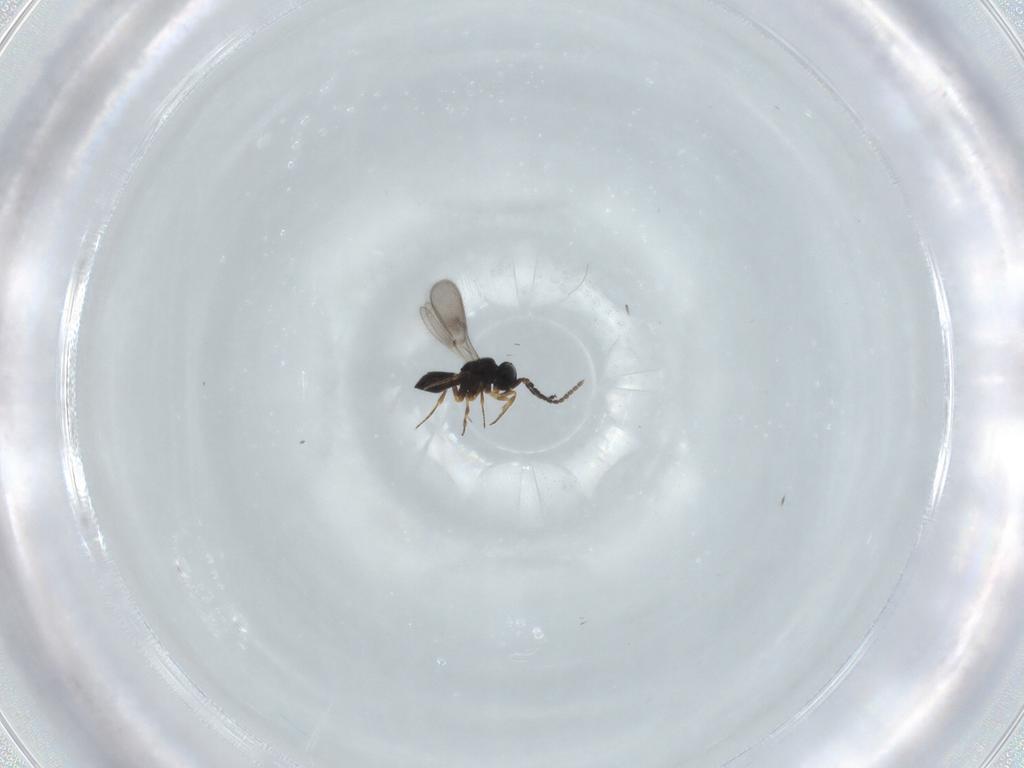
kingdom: Animalia
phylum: Arthropoda
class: Insecta
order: Hymenoptera
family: Scelionidae
